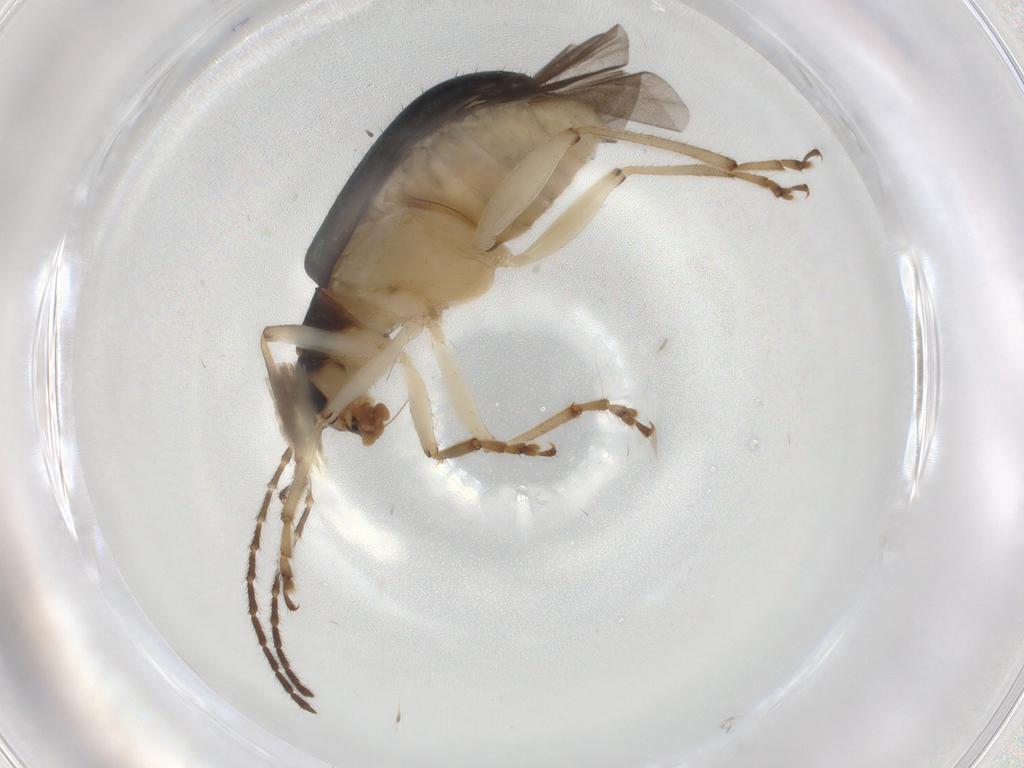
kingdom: Animalia
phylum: Arthropoda
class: Insecta
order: Coleoptera
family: Chrysomelidae
